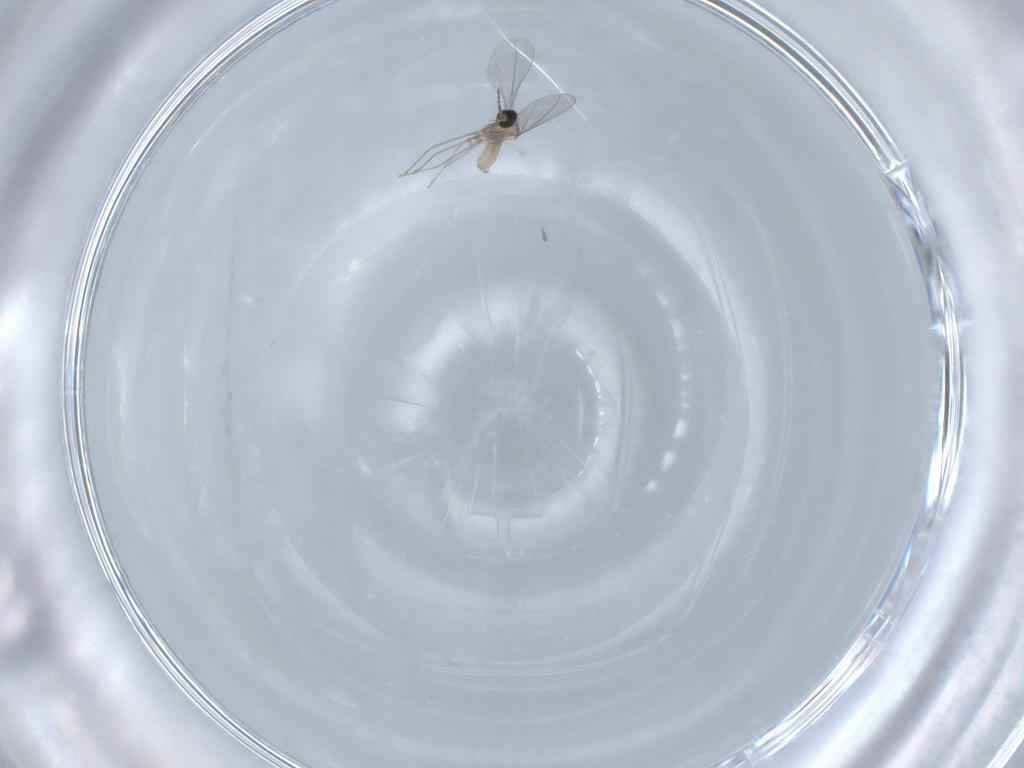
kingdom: Animalia
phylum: Arthropoda
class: Insecta
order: Diptera
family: Cecidomyiidae
